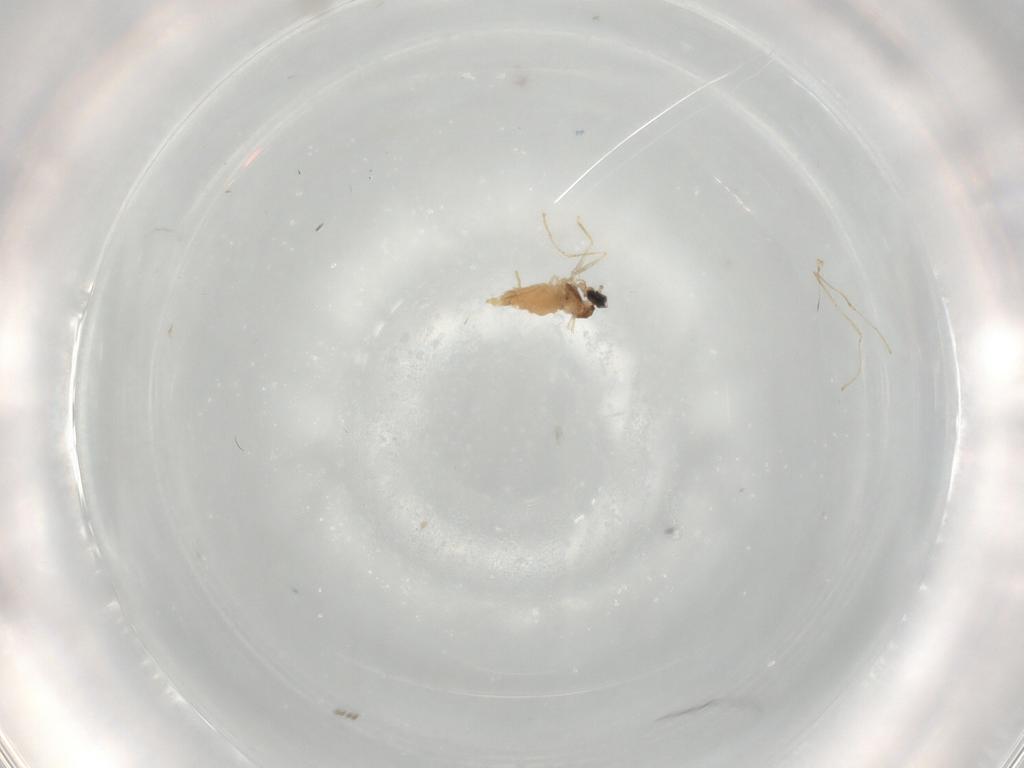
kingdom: Animalia
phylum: Arthropoda
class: Insecta
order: Diptera
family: Cecidomyiidae
